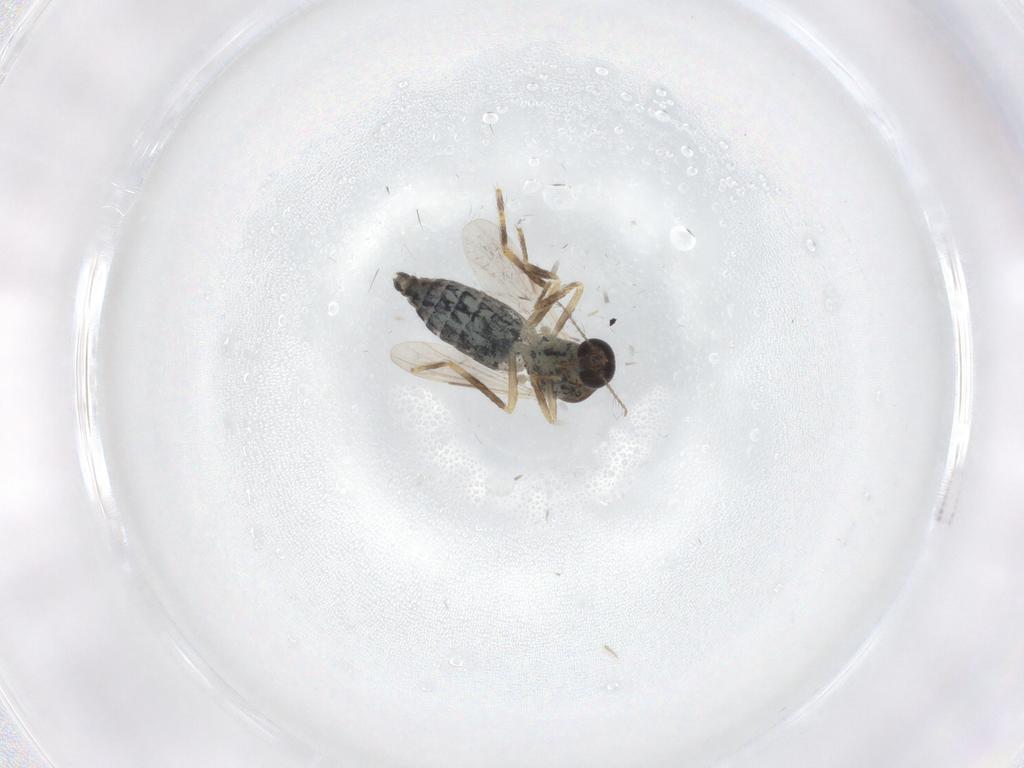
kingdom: Animalia
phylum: Arthropoda
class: Insecta
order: Diptera
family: Ceratopogonidae
